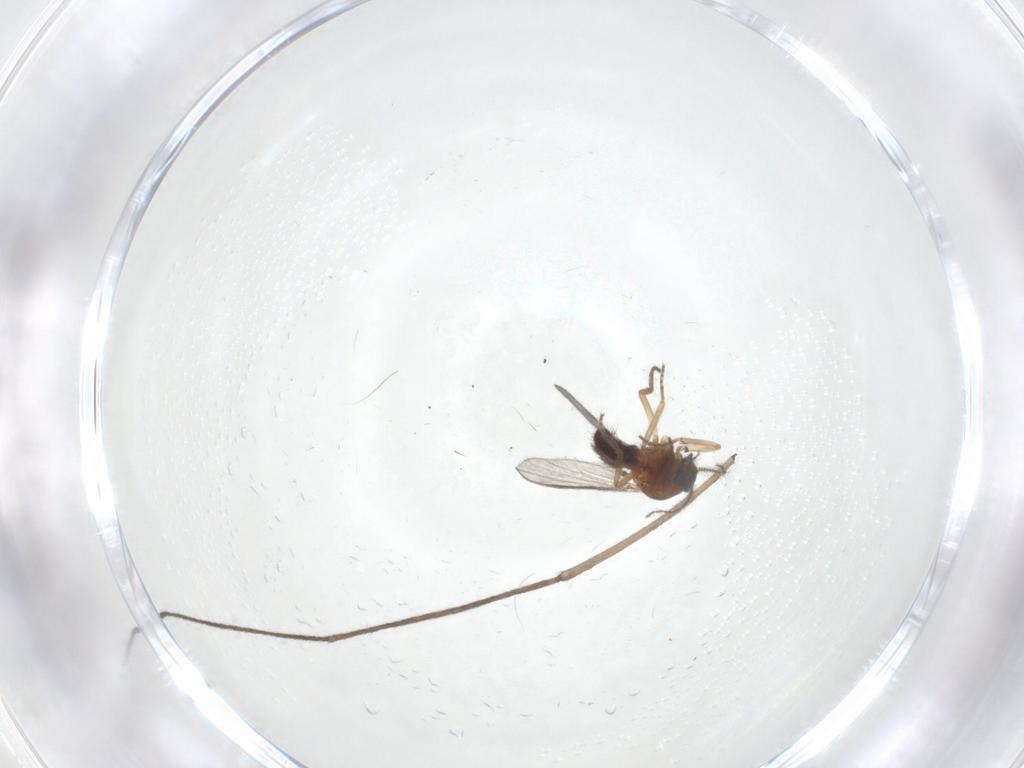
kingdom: Animalia
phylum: Arthropoda
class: Insecta
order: Diptera
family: Ceratopogonidae
